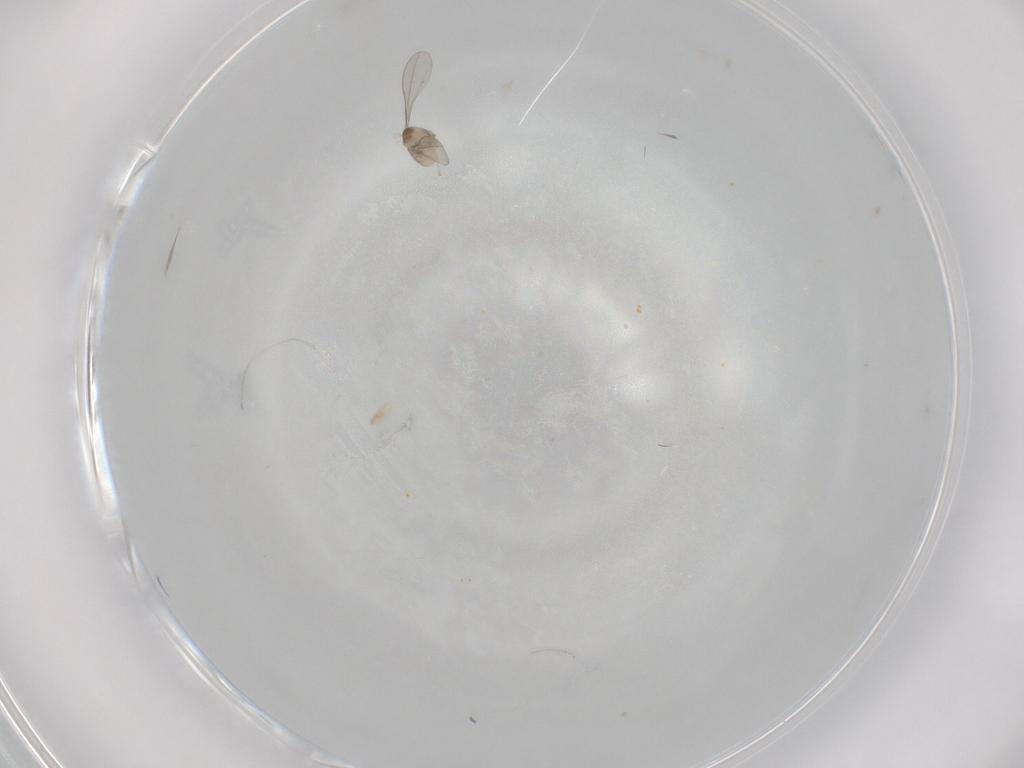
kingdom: Animalia
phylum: Arthropoda
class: Insecta
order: Diptera
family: Cecidomyiidae
